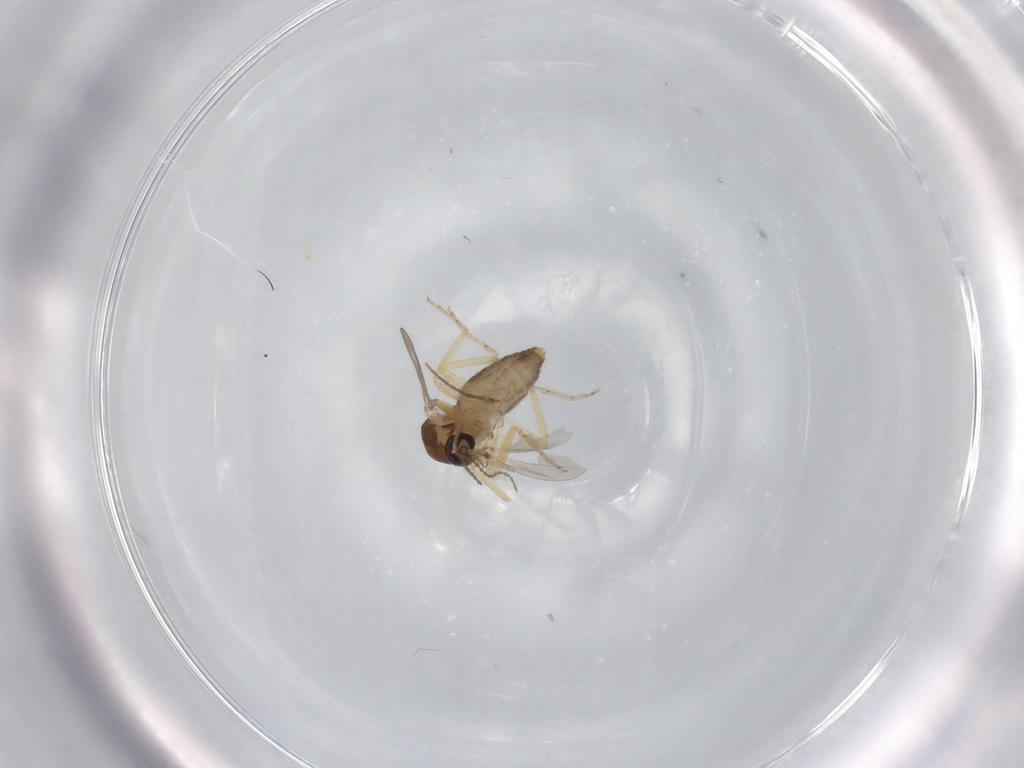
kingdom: Animalia
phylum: Arthropoda
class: Insecta
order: Diptera
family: Ceratopogonidae
